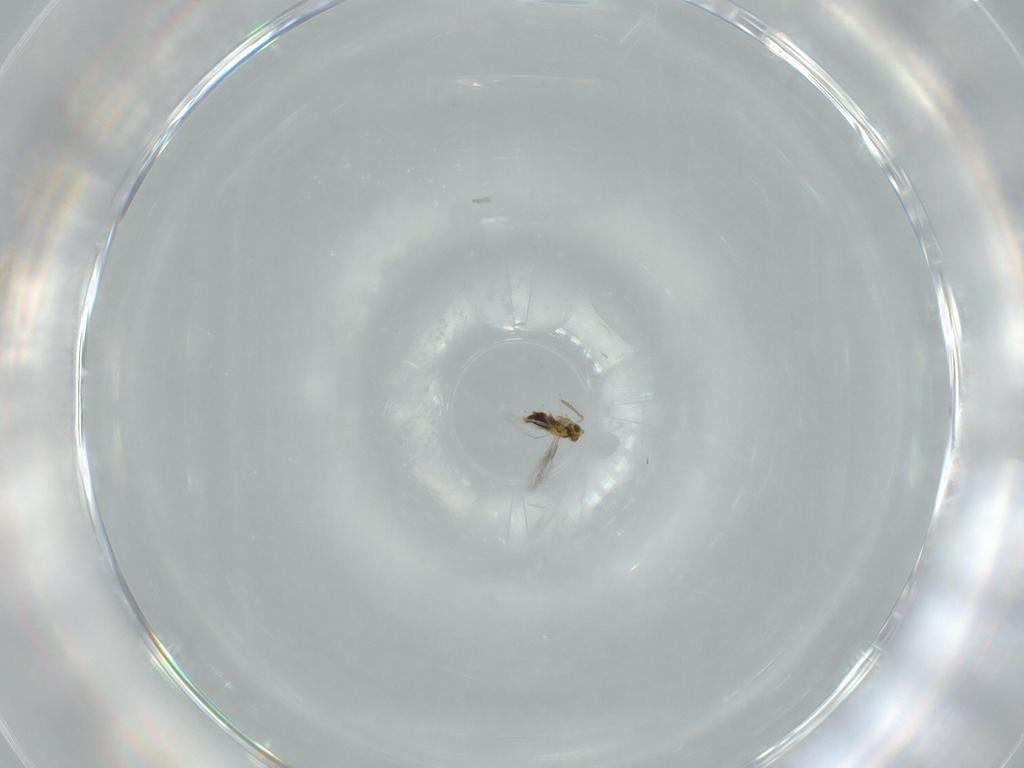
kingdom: Animalia
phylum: Arthropoda
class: Insecta
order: Hymenoptera
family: Aphelinidae
